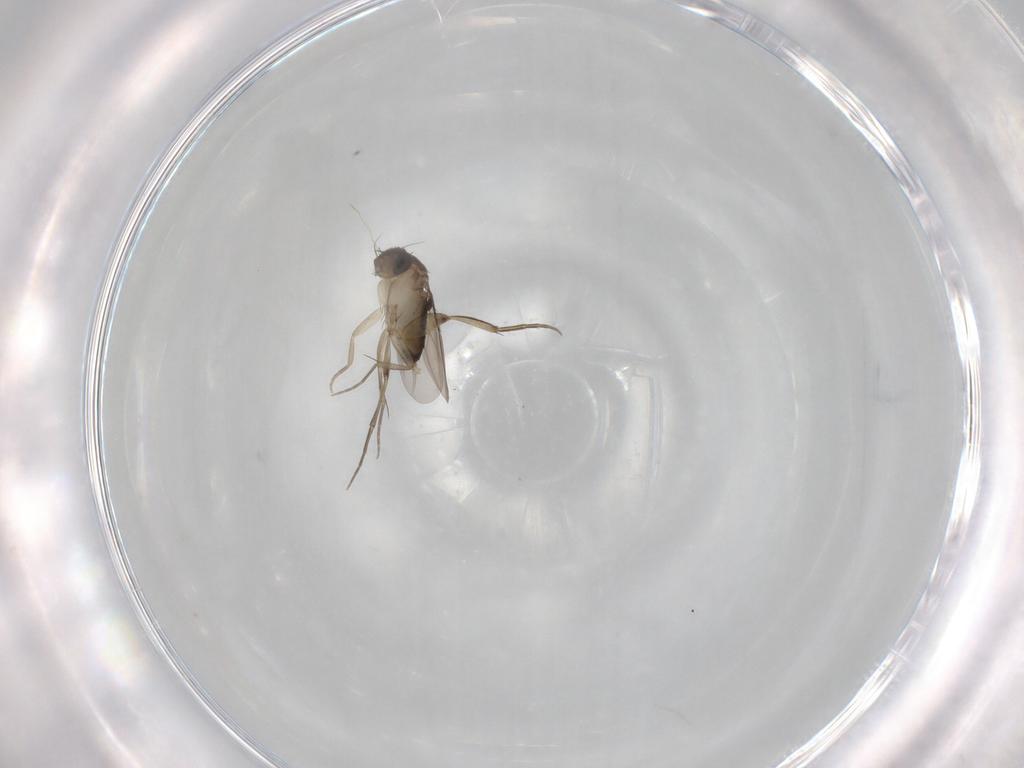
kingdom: Animalia
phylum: Arthropoda
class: Insecta
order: Diptera
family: Phoridae
